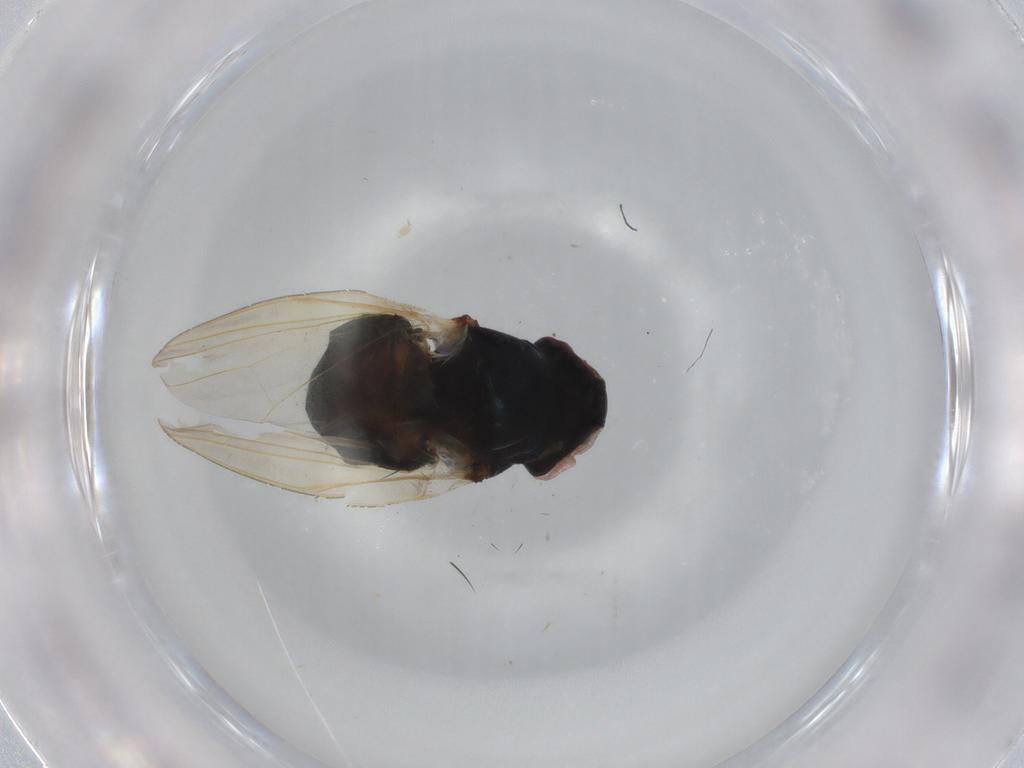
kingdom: Animalia
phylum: Arthropoda
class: Insecta
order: Diptera
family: Lonchaeidae
